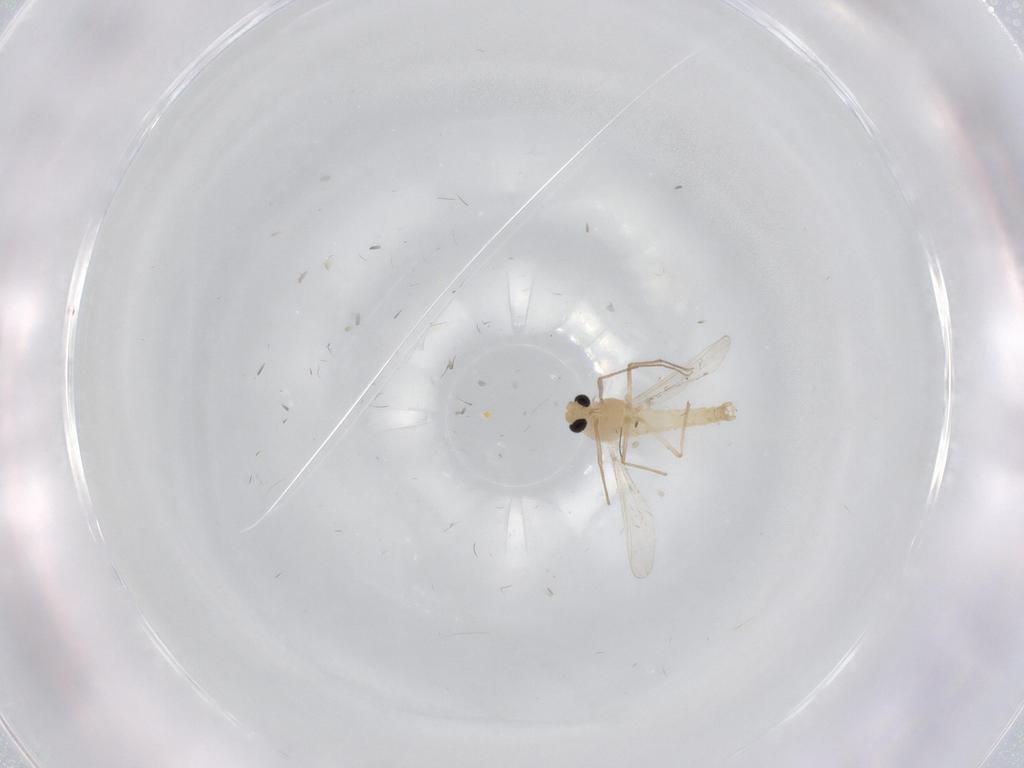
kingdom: Animalia
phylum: Arthropoda
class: Insecta
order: Diptera
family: Chironomidae
